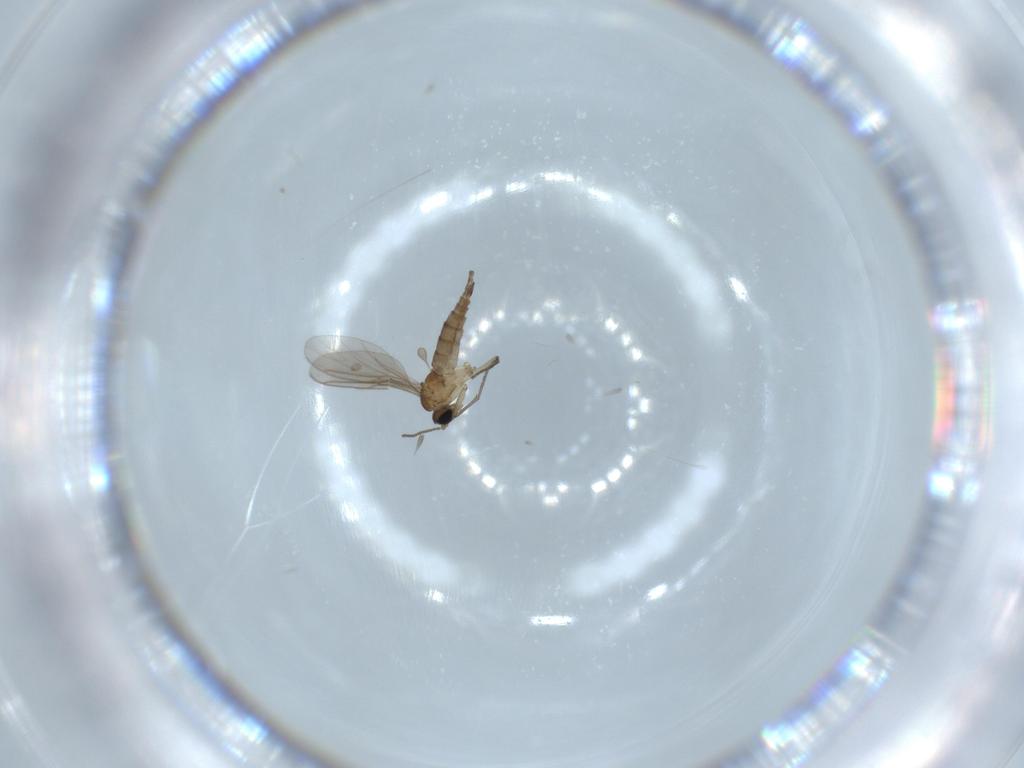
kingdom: Animalia
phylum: Arthropoda
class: Insecta
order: Diptera
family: Sciaridae
